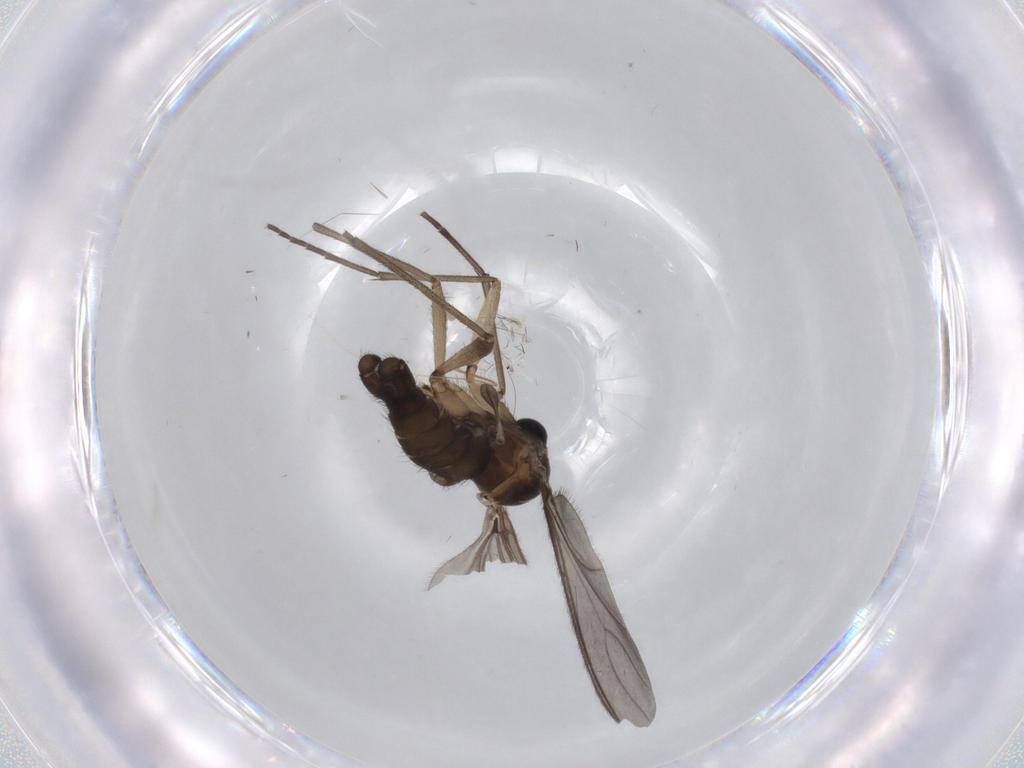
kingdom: Animalia
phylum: Arthropoda
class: Insecta
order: Diptera
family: Sciaridae
